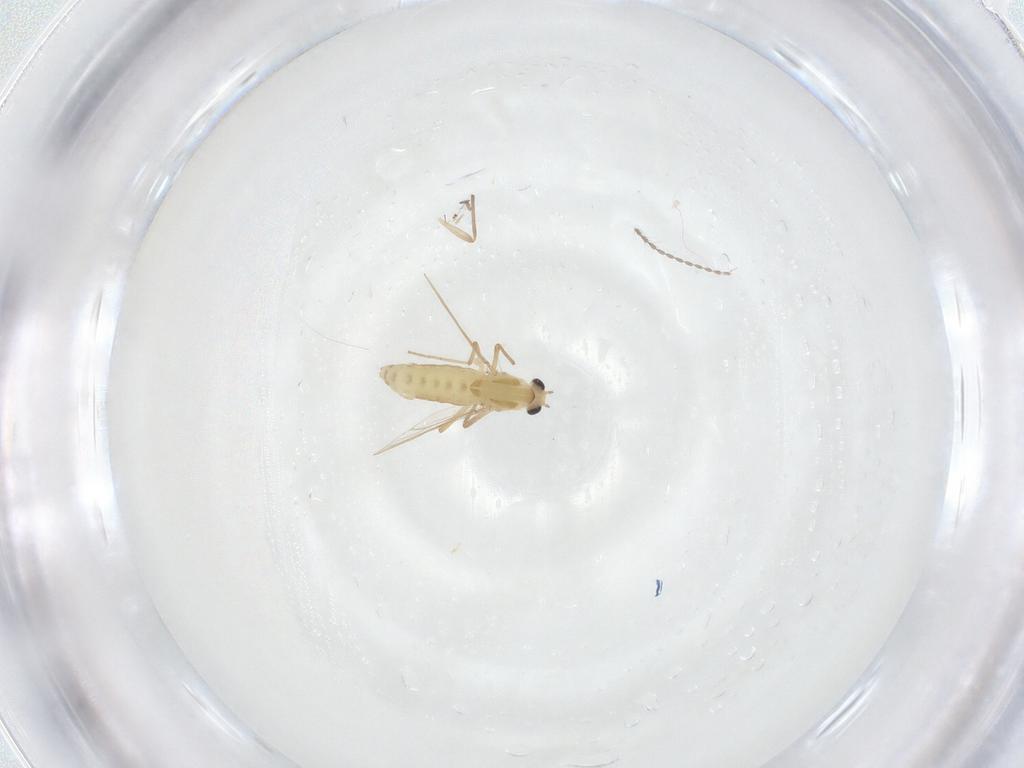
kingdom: Animalia
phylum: Arthropoda
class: Insecta
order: Diptera
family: Chironomidae
